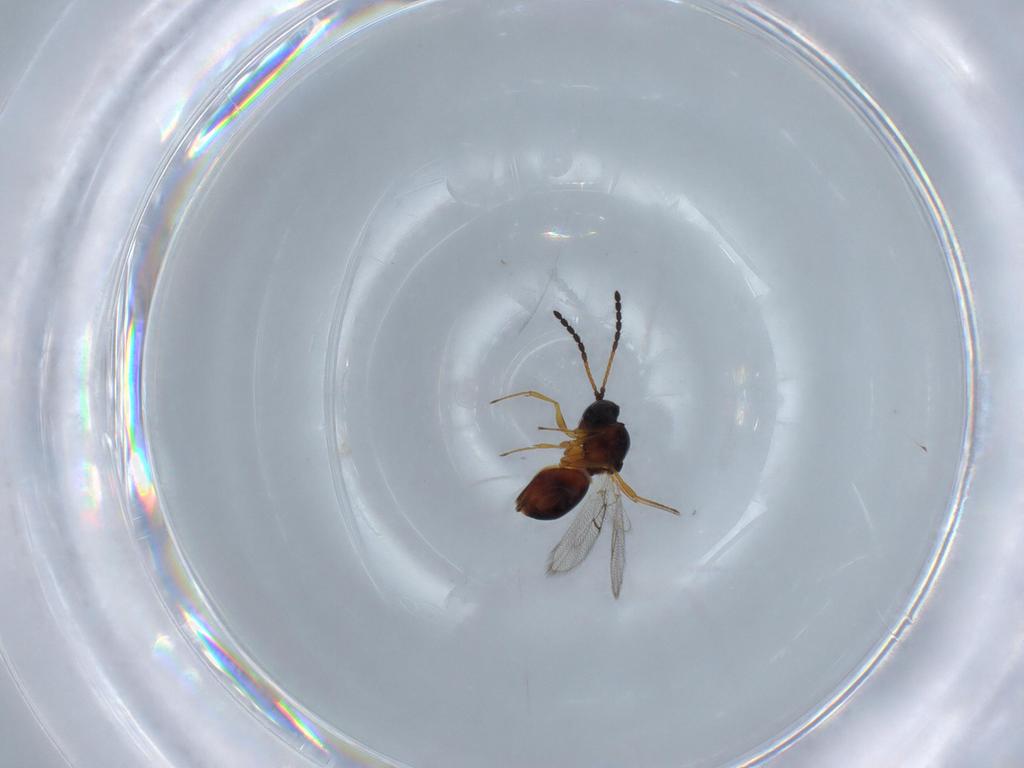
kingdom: Animalia
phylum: Arthropoda
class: Insecta
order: Hymenoptera
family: Figitidae
